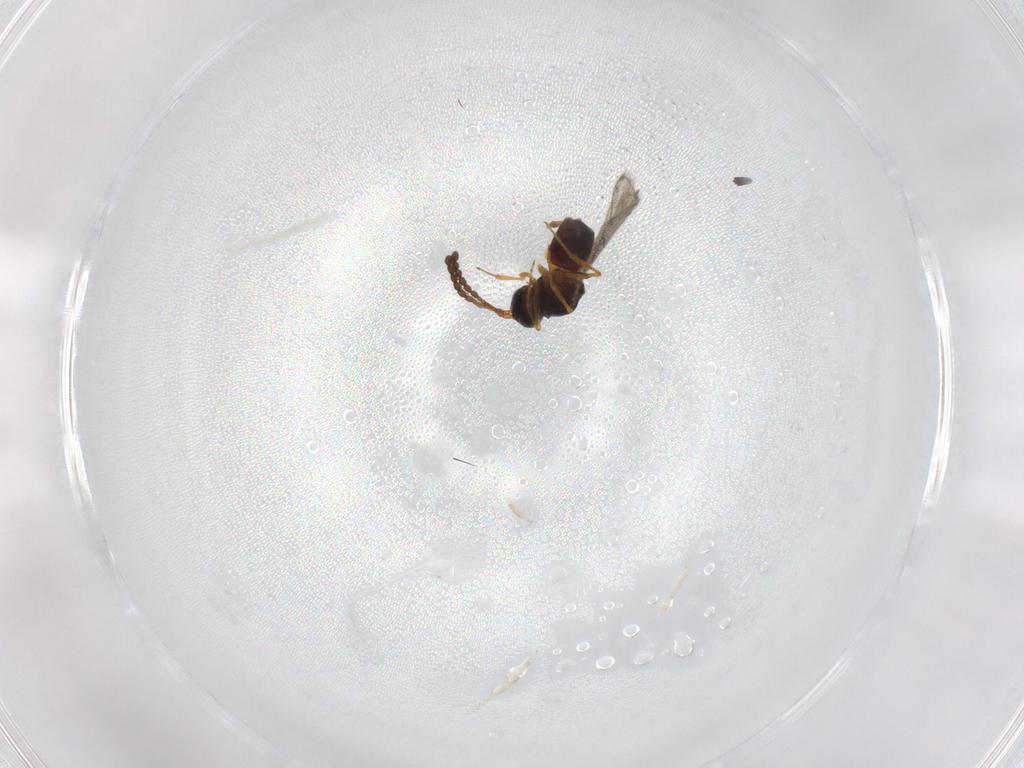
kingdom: Animalia
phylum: Arthropoda
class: Insecta
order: Hymenoptera
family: Figitidae
